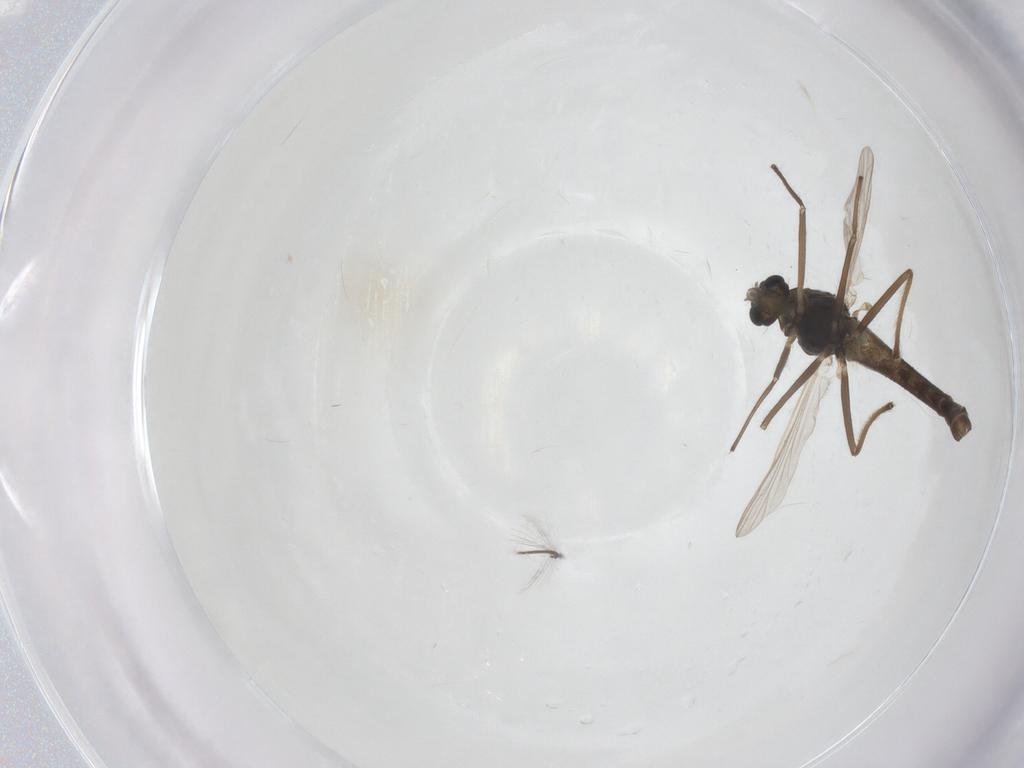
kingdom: Animalia
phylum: Arthropoda
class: Insecta
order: Diptera
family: Chironomidae
